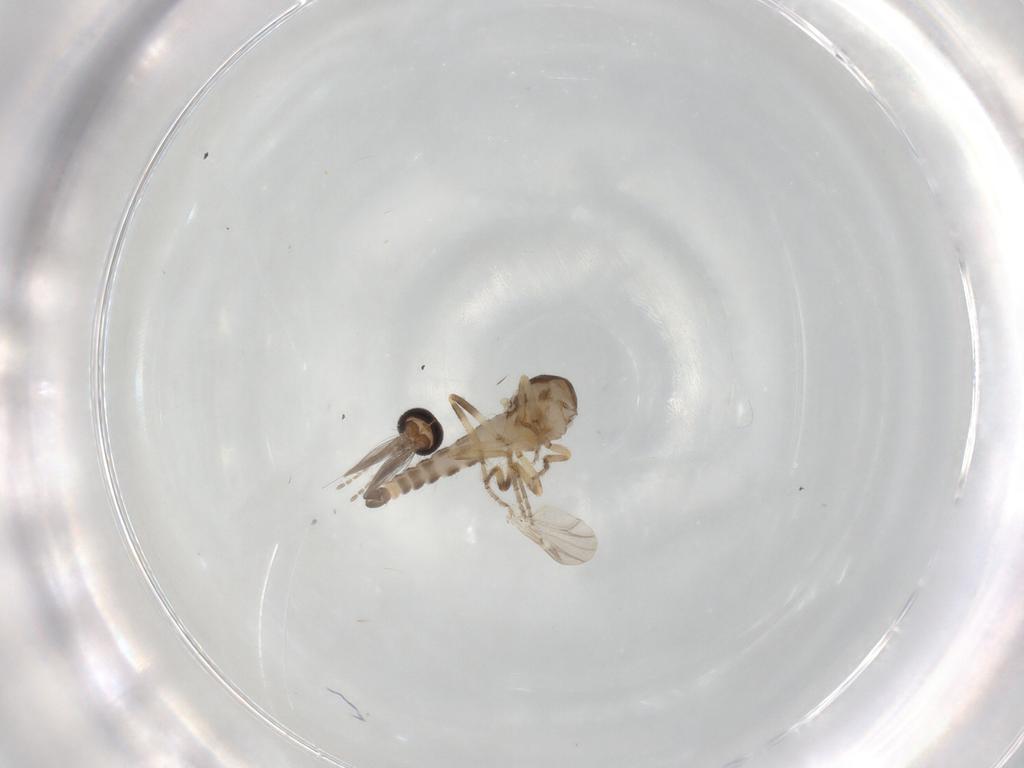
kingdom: Animalia
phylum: Arthropoda
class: Insecta
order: Diptera
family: Ceratopogonidae
